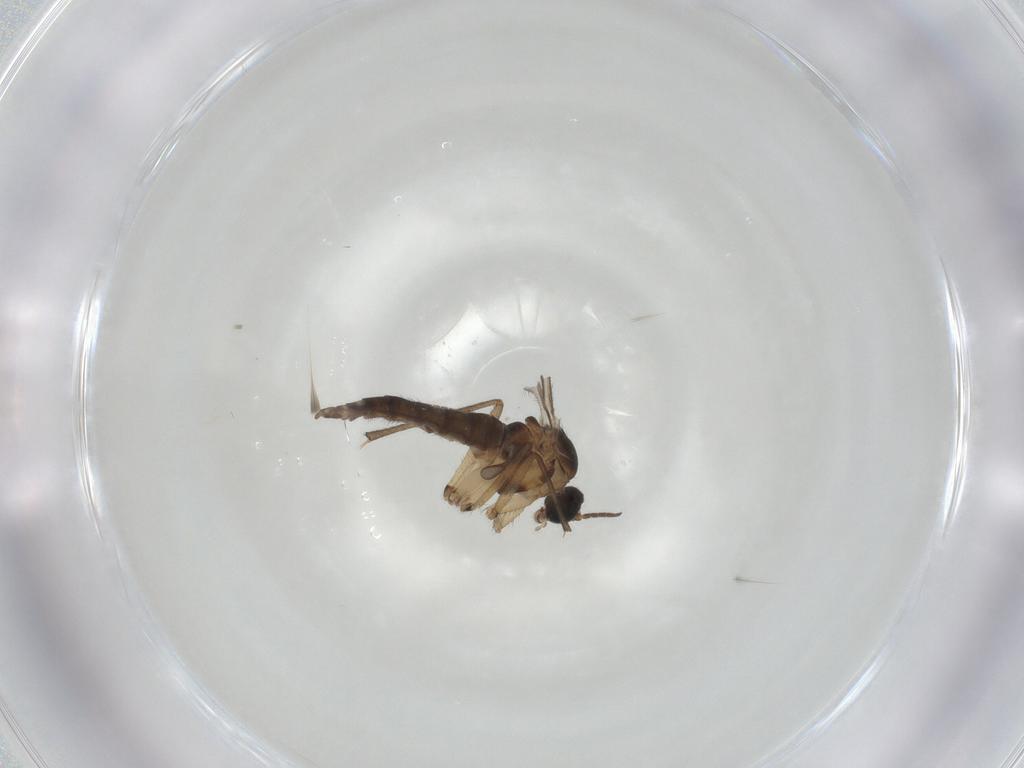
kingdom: Animalia
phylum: Arthropoda
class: Insecta
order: Diptera
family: Sciaridae
